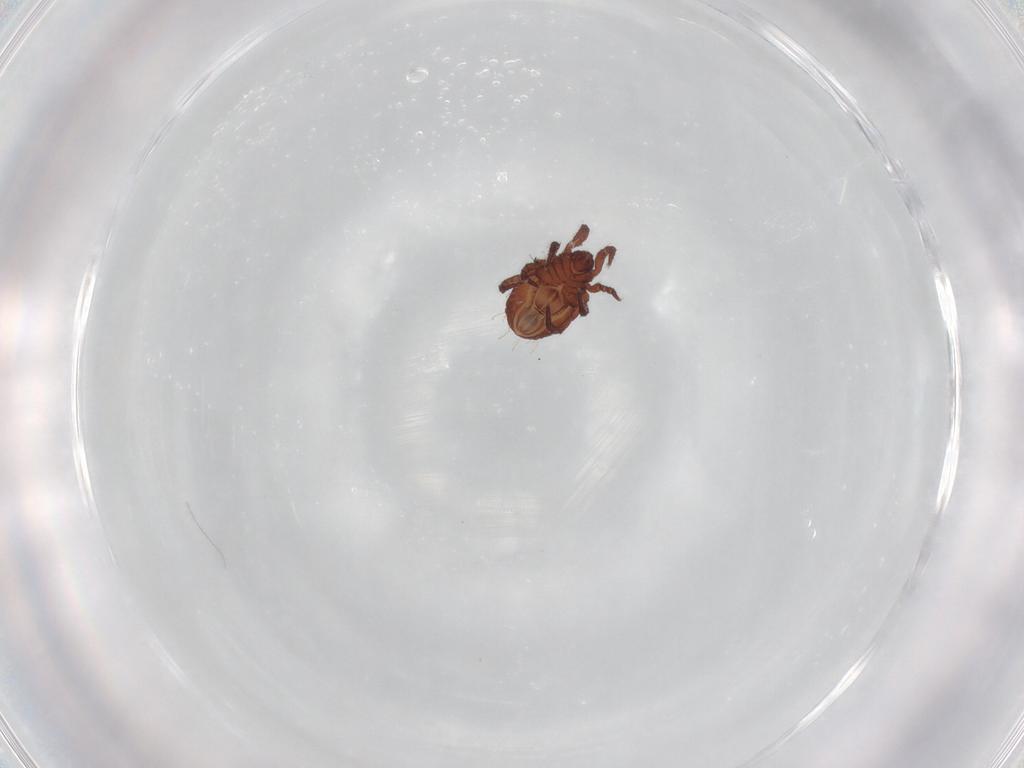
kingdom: Animalia
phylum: Arthropoda
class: Arachnida
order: Sarcoptiformes
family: Nothridae
